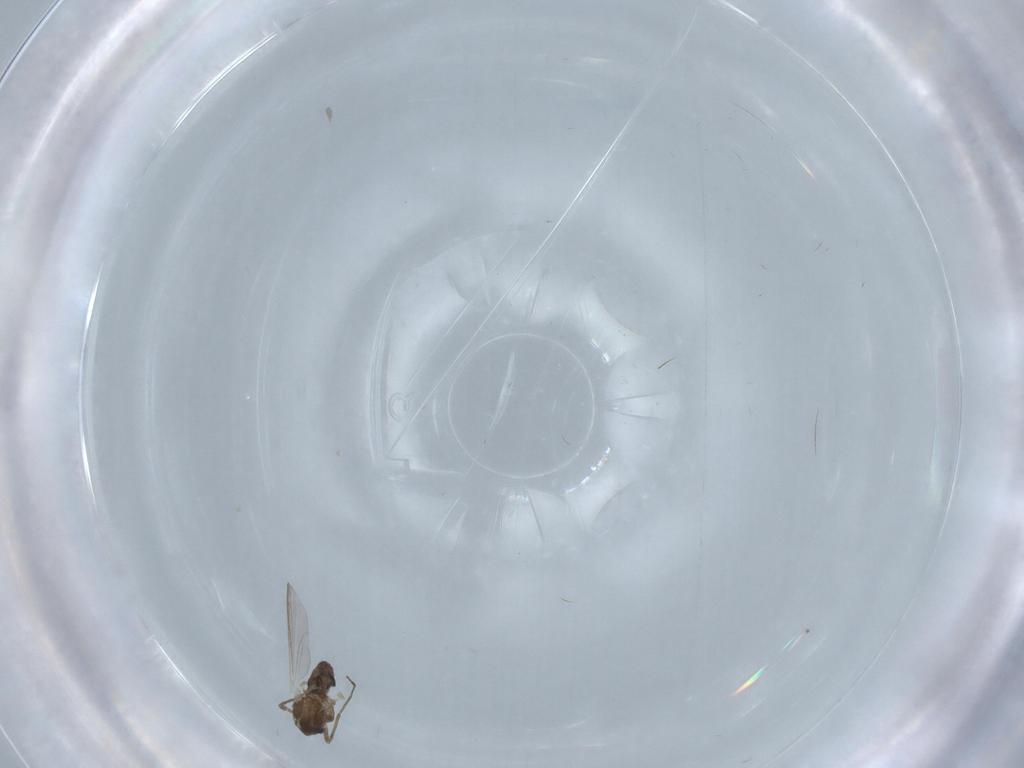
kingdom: Animalia
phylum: Arthropoda
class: Insecta
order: Diptera
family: Chironomidae
